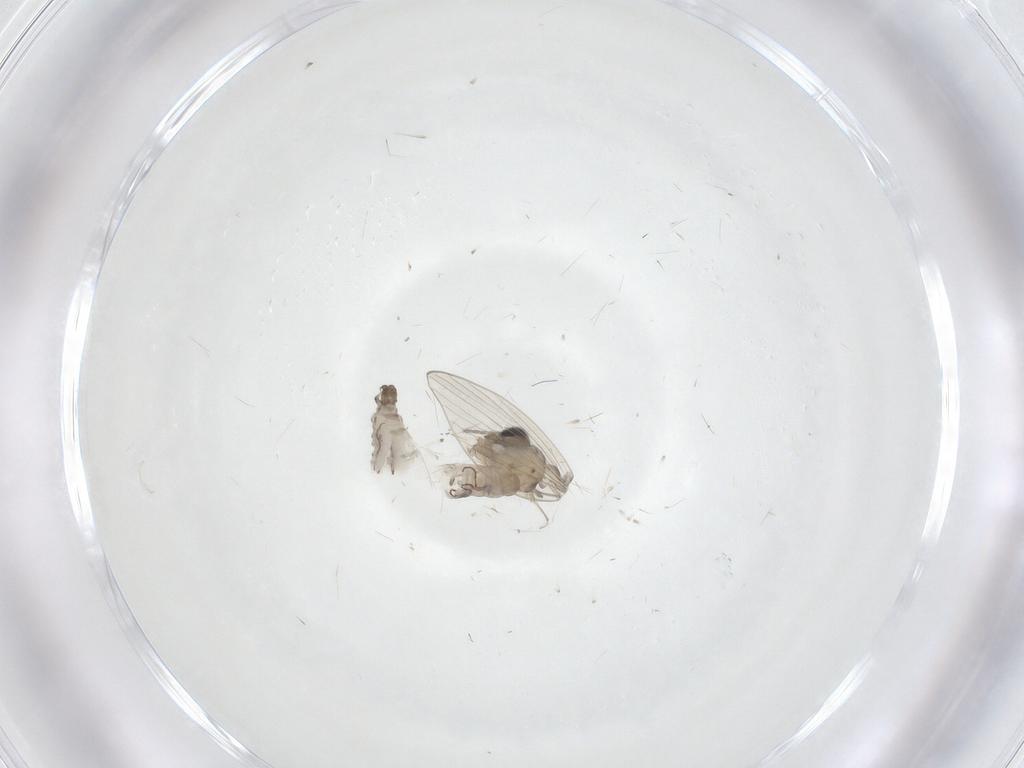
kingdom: Animalia
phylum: Arthropoda
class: Insecta
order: Diptera
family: Psychodidae
